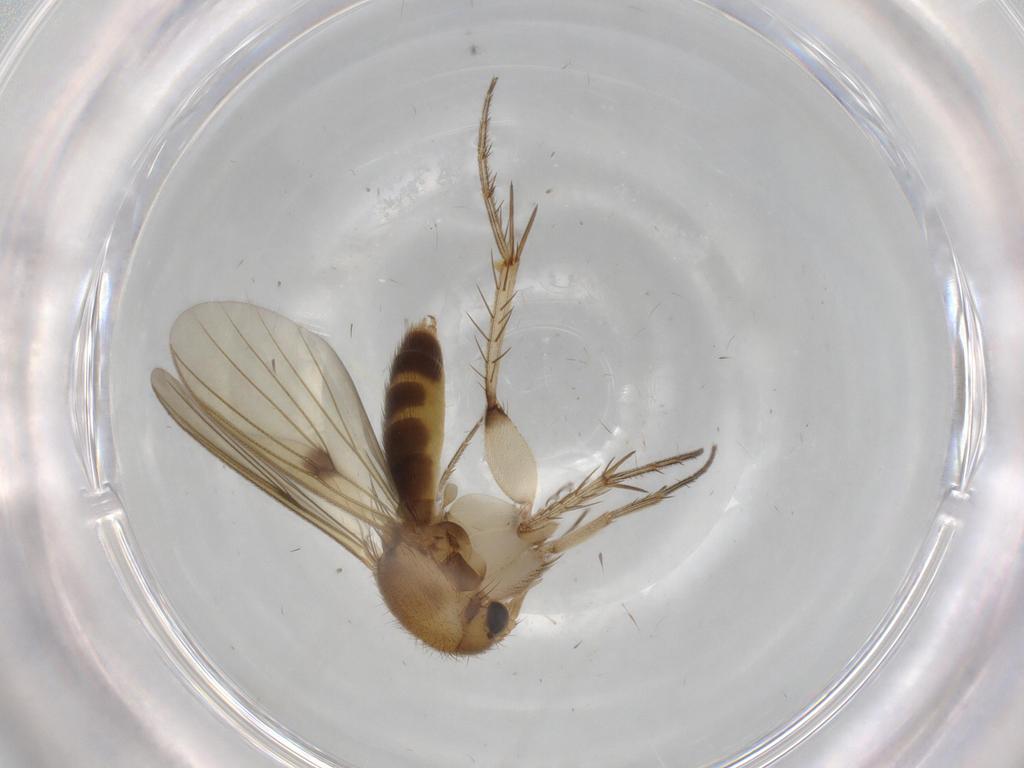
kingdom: Animalia
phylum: Arthropoda
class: Insecta
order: Diptera
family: Cecidomyiidae
